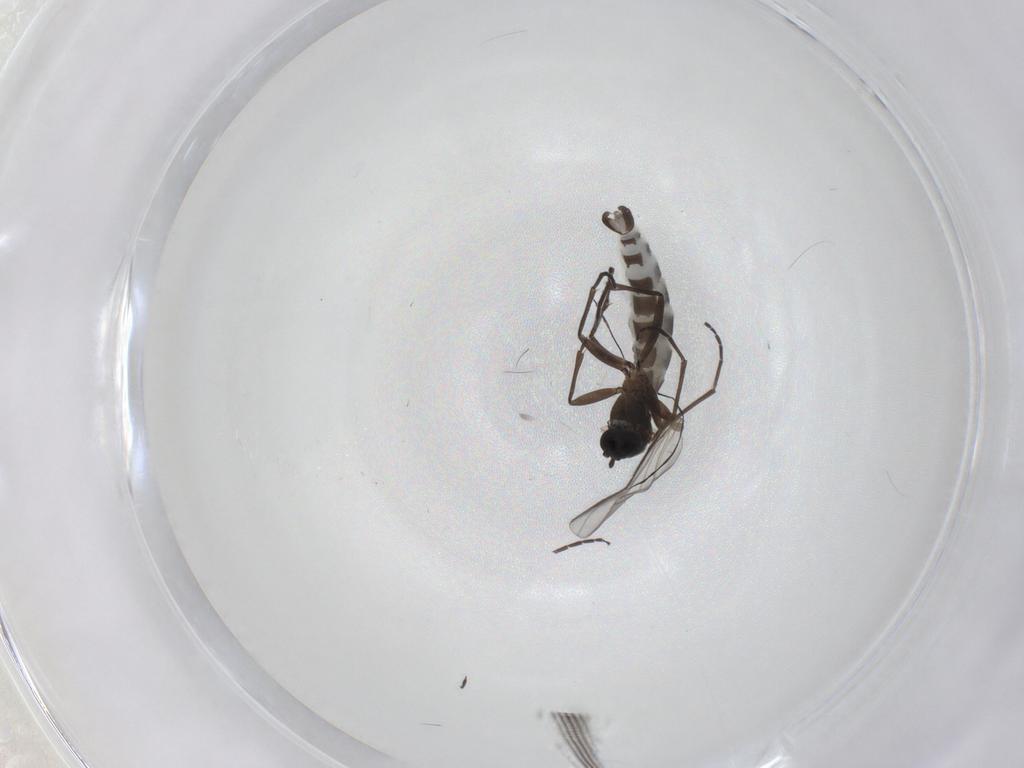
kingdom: Animalia
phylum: Arthropoda
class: Insecta
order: Diptera
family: Sciaridae
